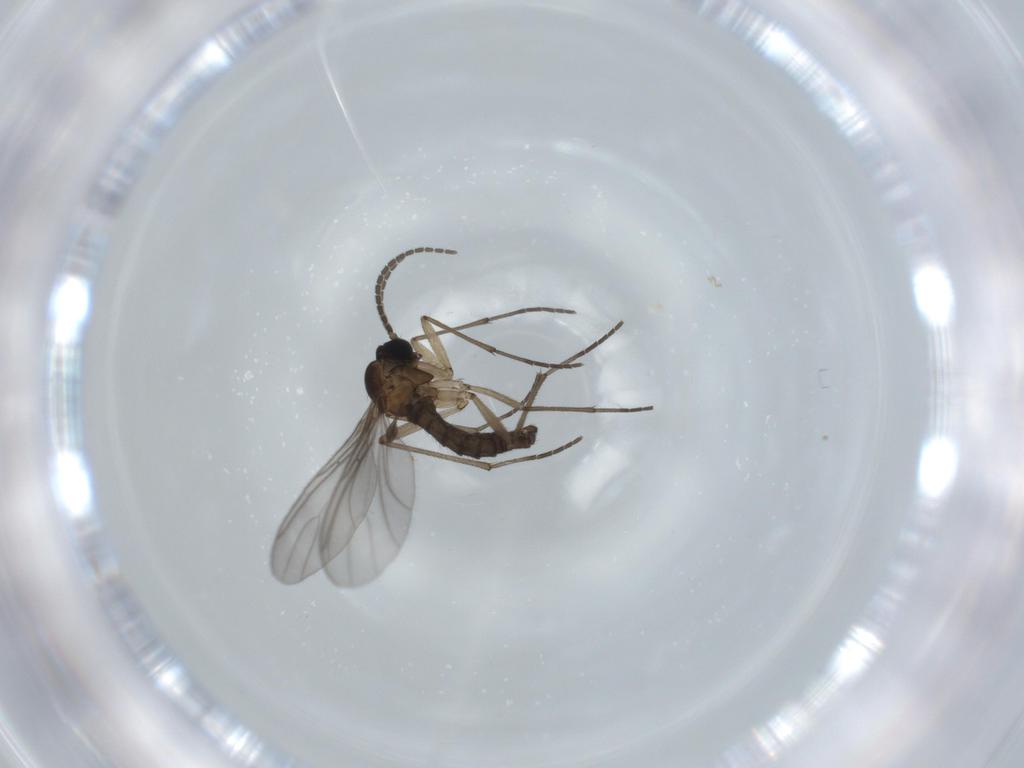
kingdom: Animalia
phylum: Arthropoda
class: Insecta
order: Diptera
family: Sciaridae
